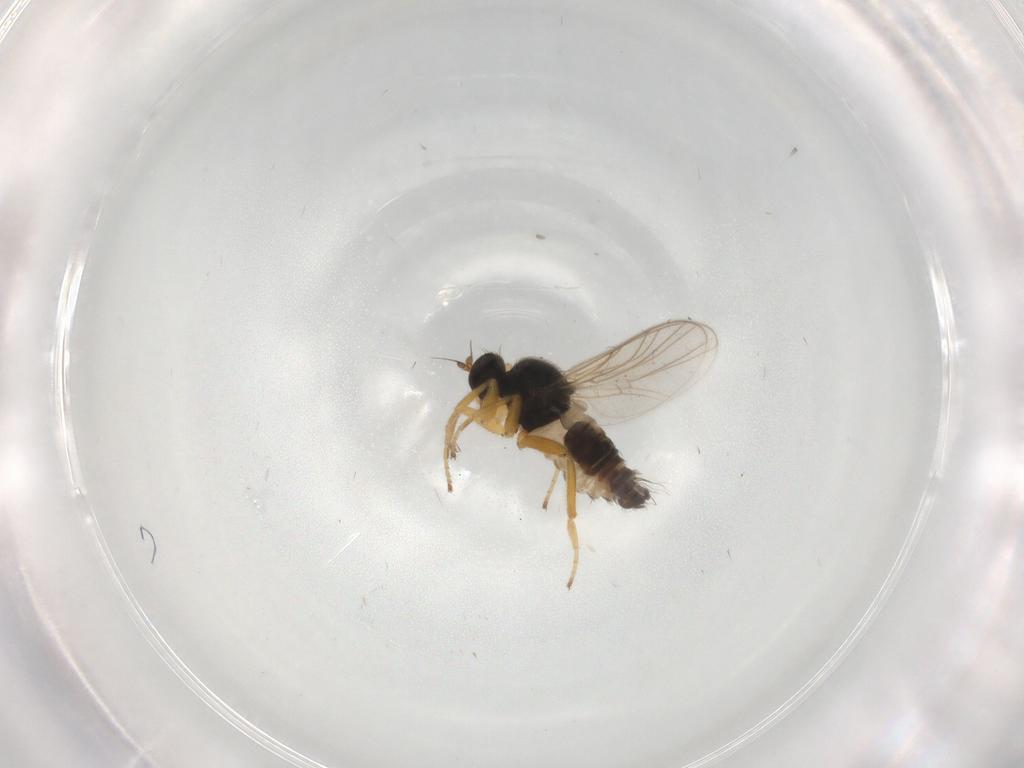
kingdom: Animalia
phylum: Arthropoda
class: Insecta
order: Diptera
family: Hybotidae
